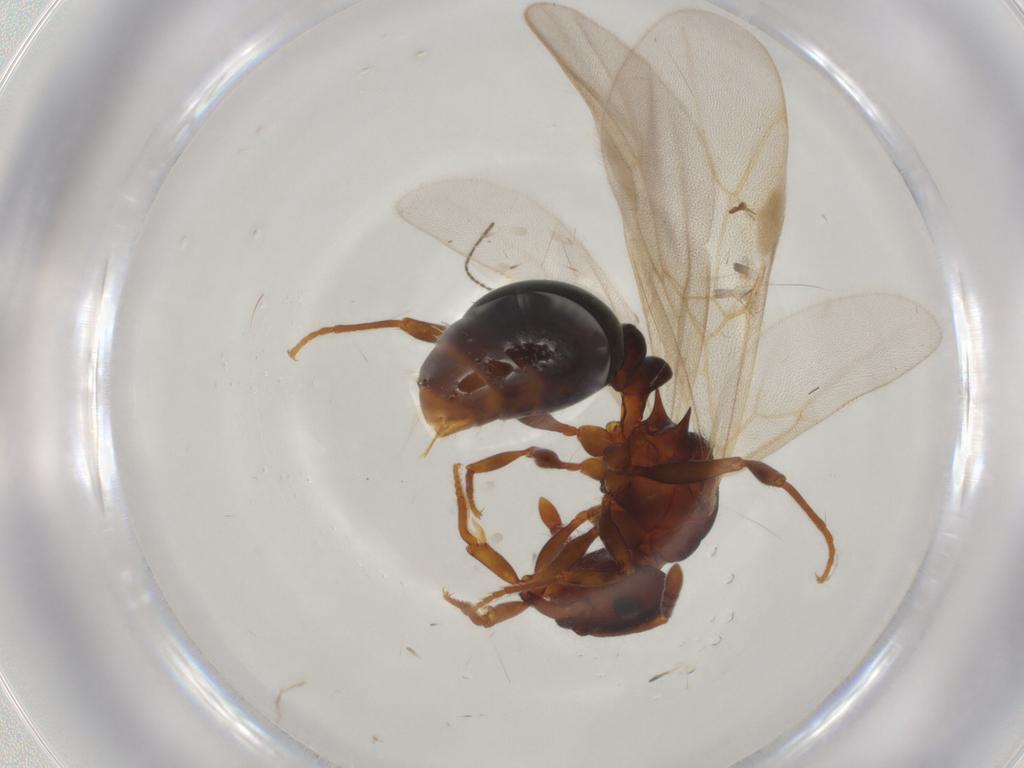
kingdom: Animalia
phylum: Arthropoda
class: Insecta
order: Diptera
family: Cecidomyiidae
